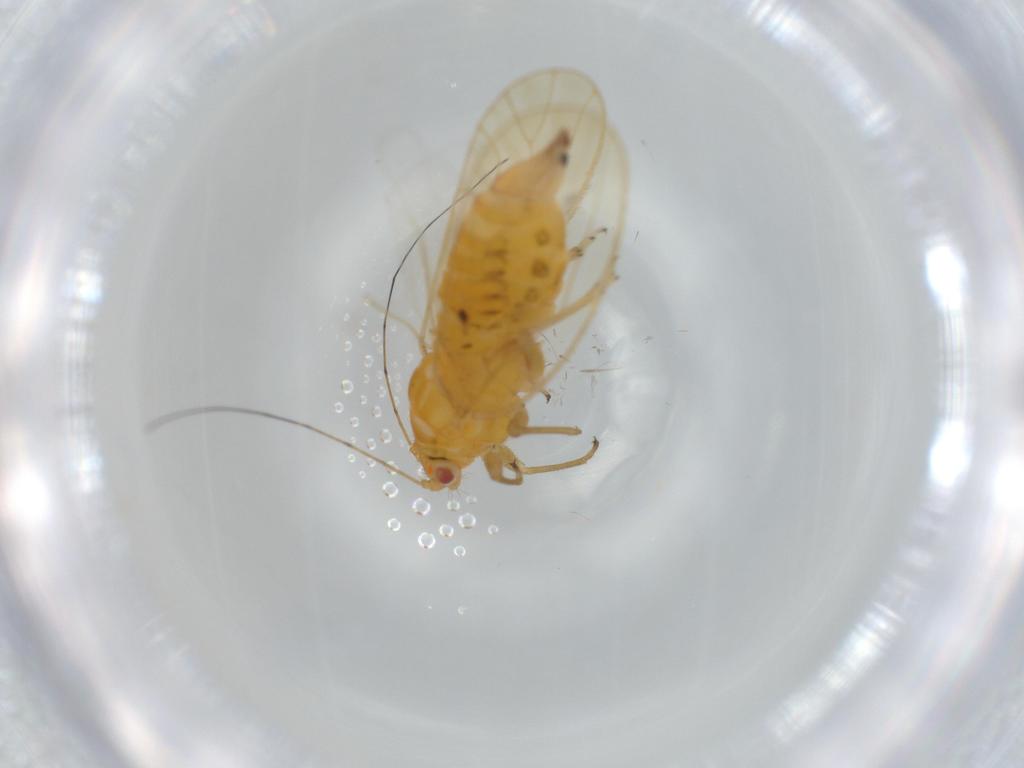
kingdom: Animalia
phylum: Arthropoda
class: Insecta
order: Hemiptera
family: Psyllidae
